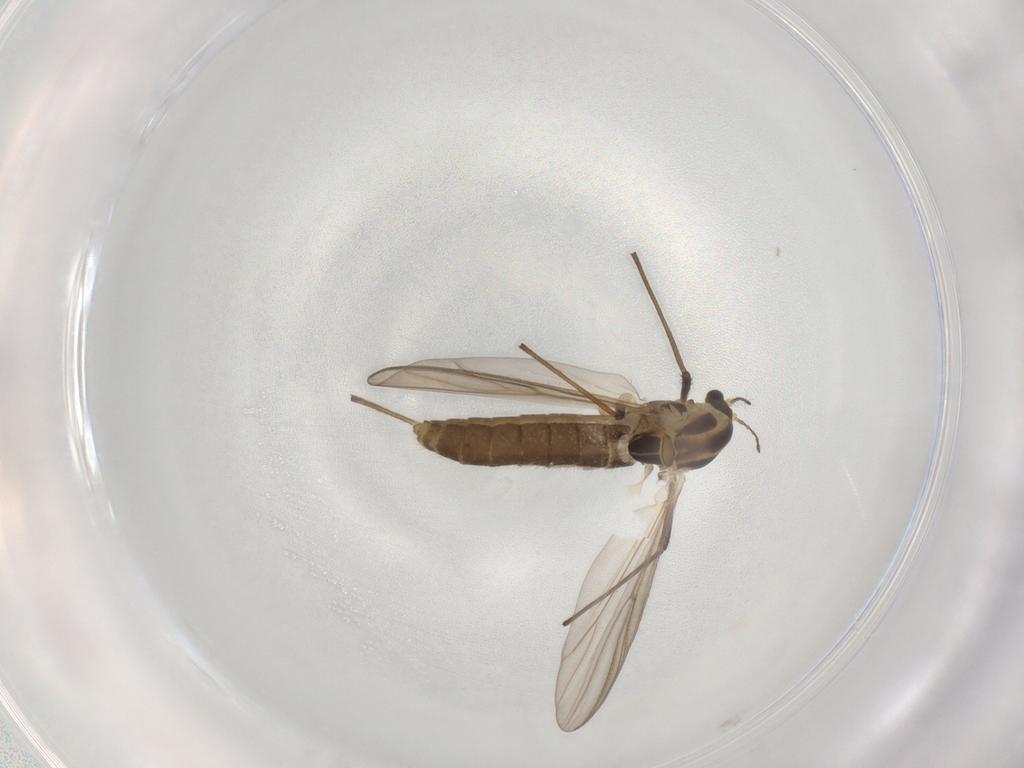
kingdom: Animalia
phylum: Arthropoda
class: Insecta
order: Diptera
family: Chironomidae
